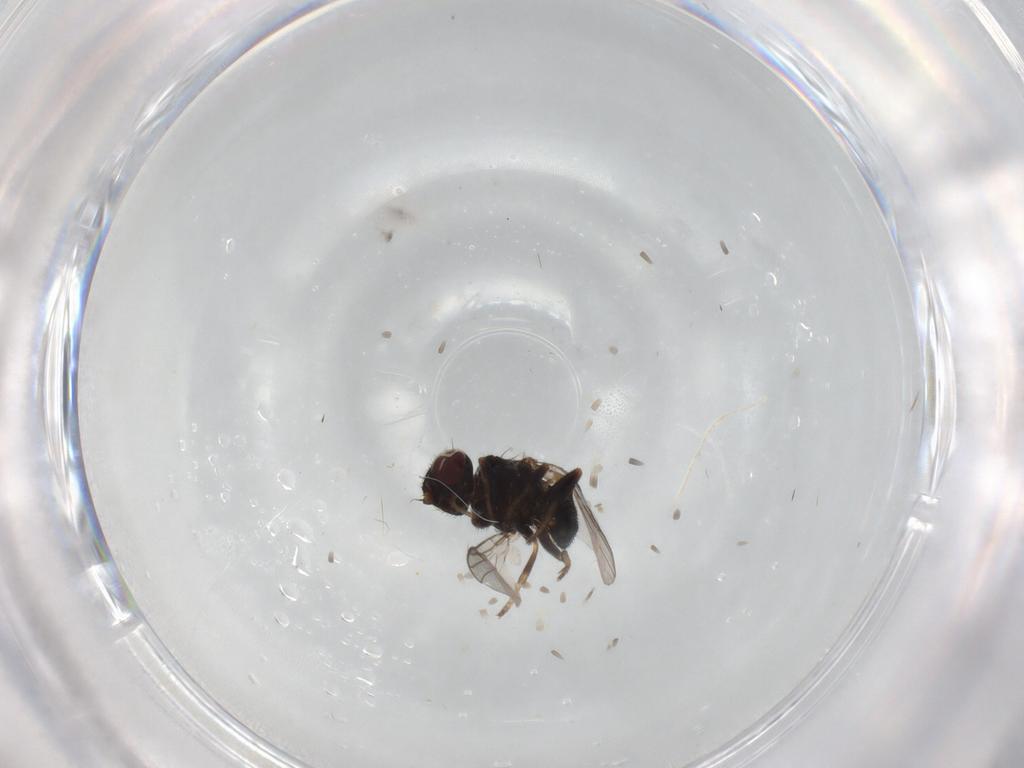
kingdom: Animalia
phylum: Arthropoda
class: Insecta
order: Diptera
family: Chloropidae
